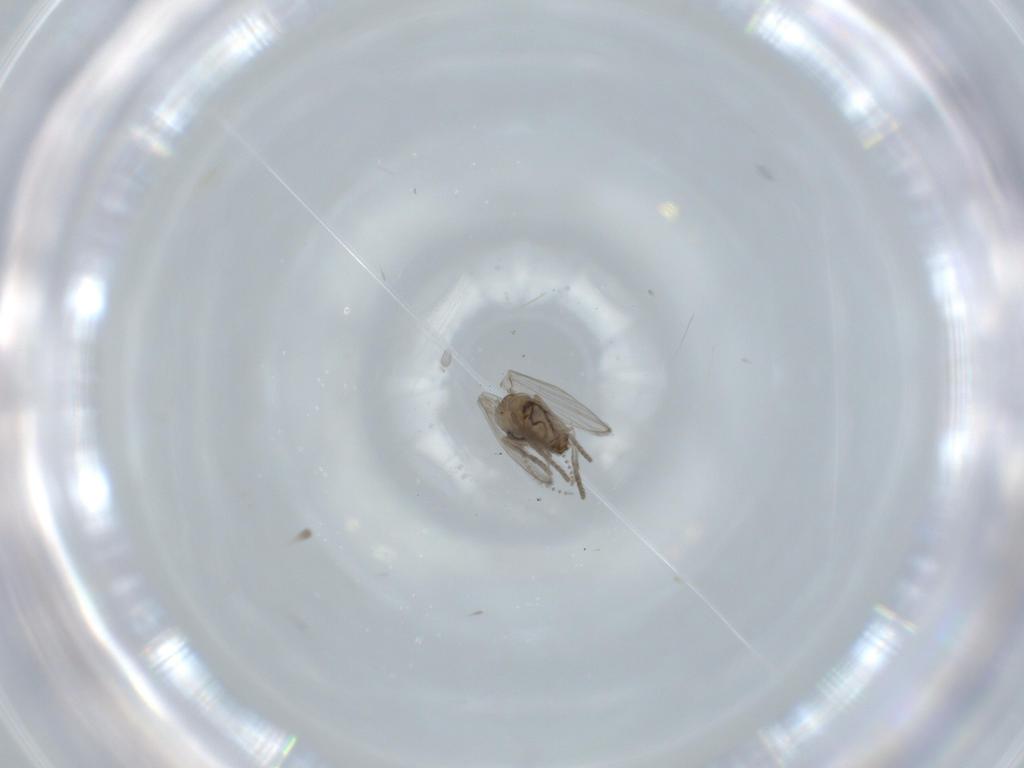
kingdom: Animalia
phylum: Arthropoda
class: Insecta
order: Diptera
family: Psychodidae
